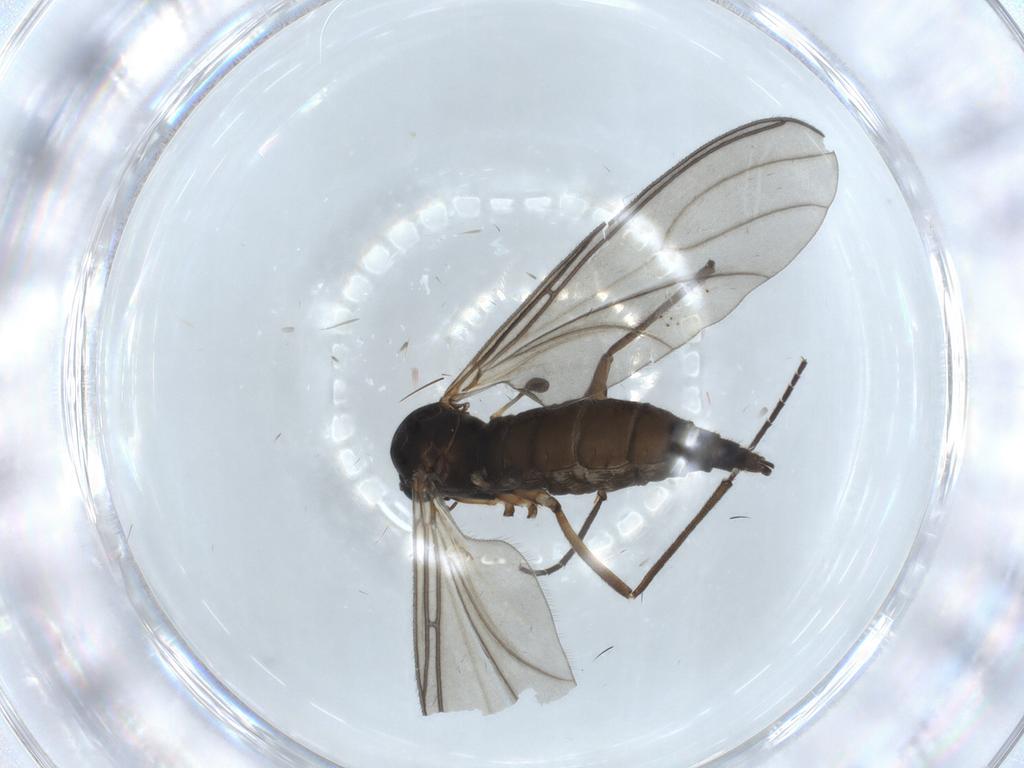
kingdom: Animalia
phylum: Arthropoda
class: Insecta
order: Diptera
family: Sciaridae
